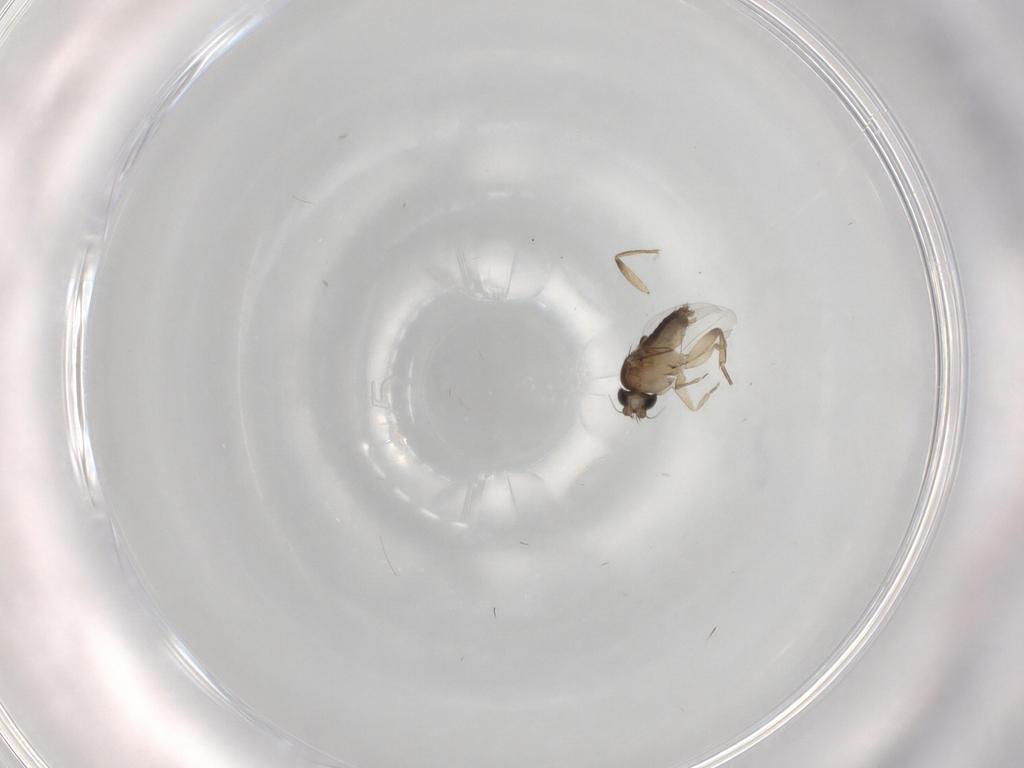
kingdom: Animalia
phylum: Arthropoda
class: Insecta
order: Diptera
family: Phoridae
